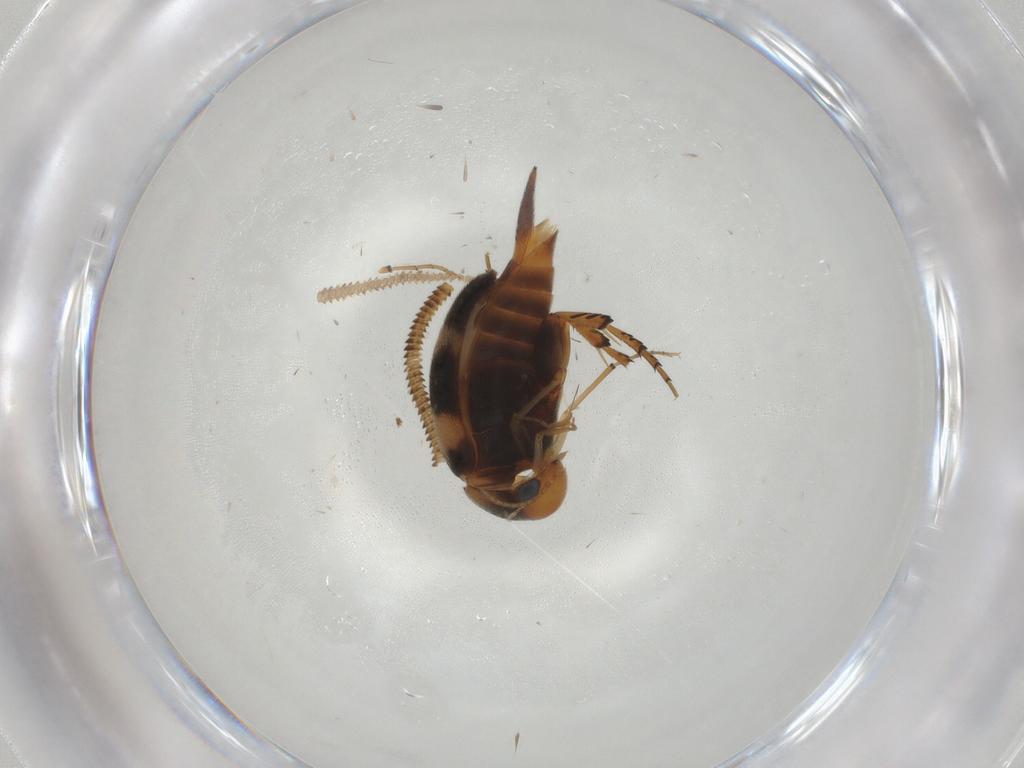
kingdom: Animalia
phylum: Arthropoda
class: Insecta
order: Coleoptera
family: Mordellidae
